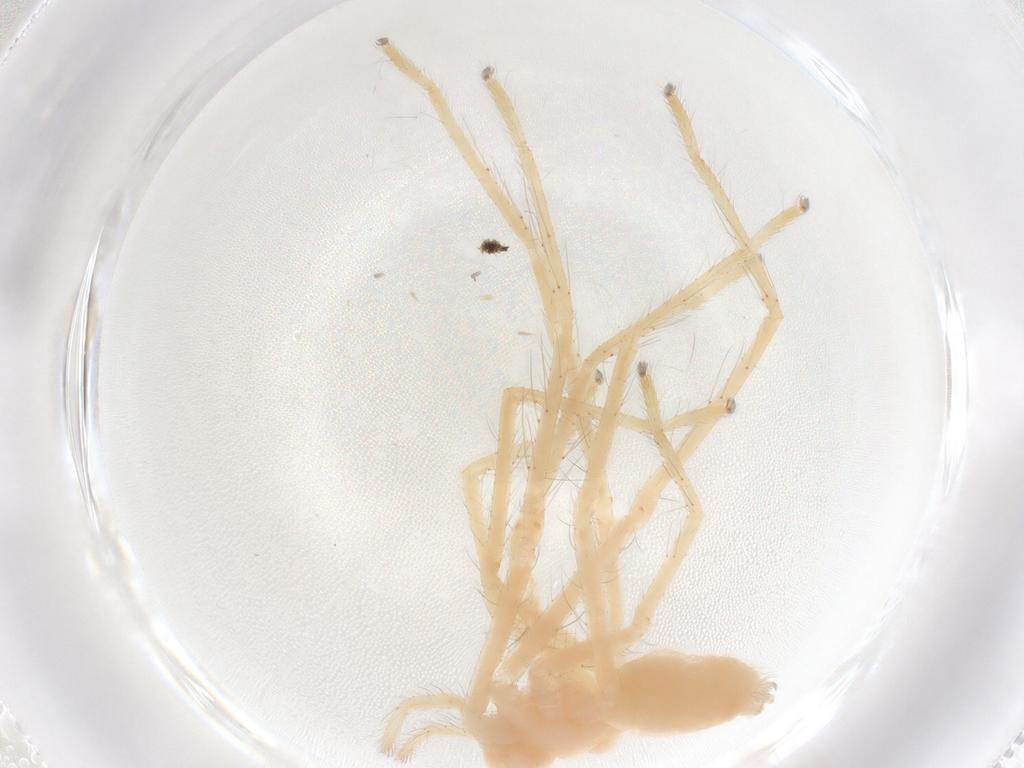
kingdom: Animalia
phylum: Arthropoda
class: Arachnida
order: Araneae
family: Sparassidae
